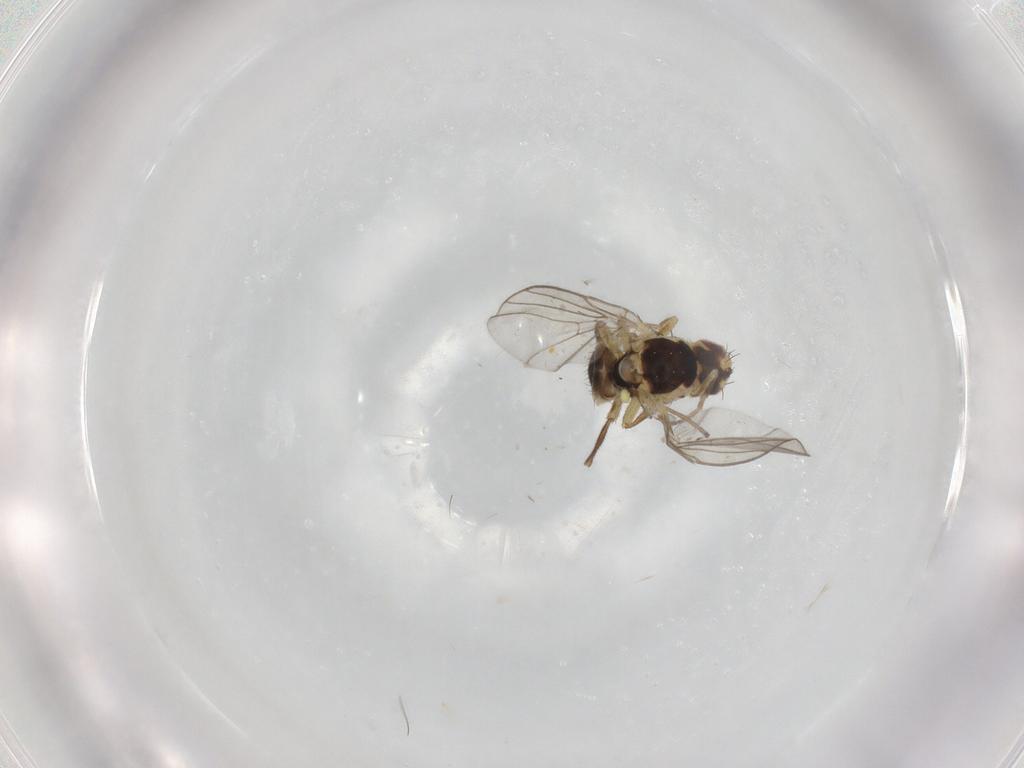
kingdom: Animalia
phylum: Arthropoda
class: Insecta
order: Diptera
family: Agromyzidae
